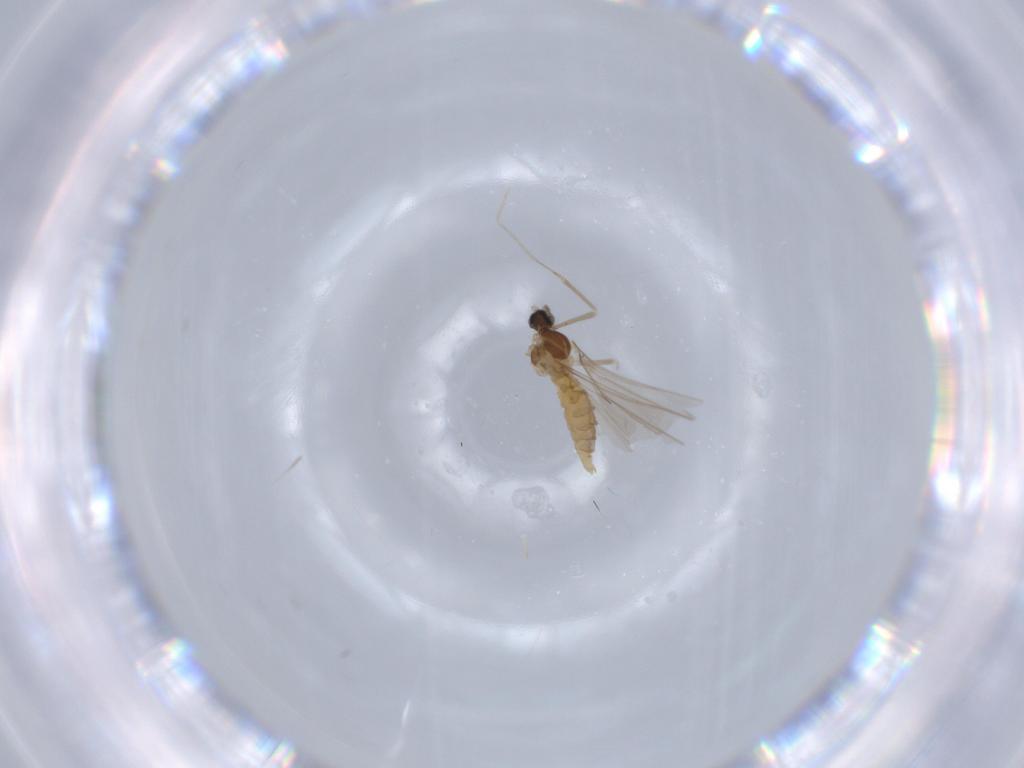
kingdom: Animalia
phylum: Arthropoda
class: Insecta
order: Diptera
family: Cecidomyiidae
